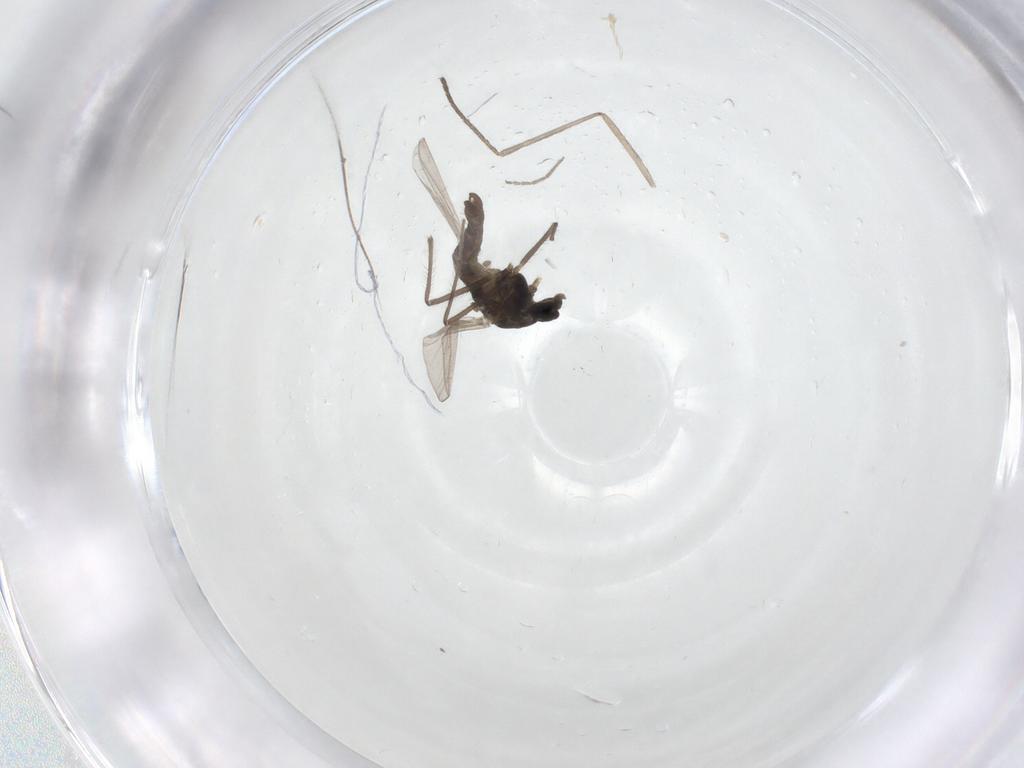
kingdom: Animalia
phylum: Arthropoda
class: Insecta
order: Diptera
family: Chironomidae
